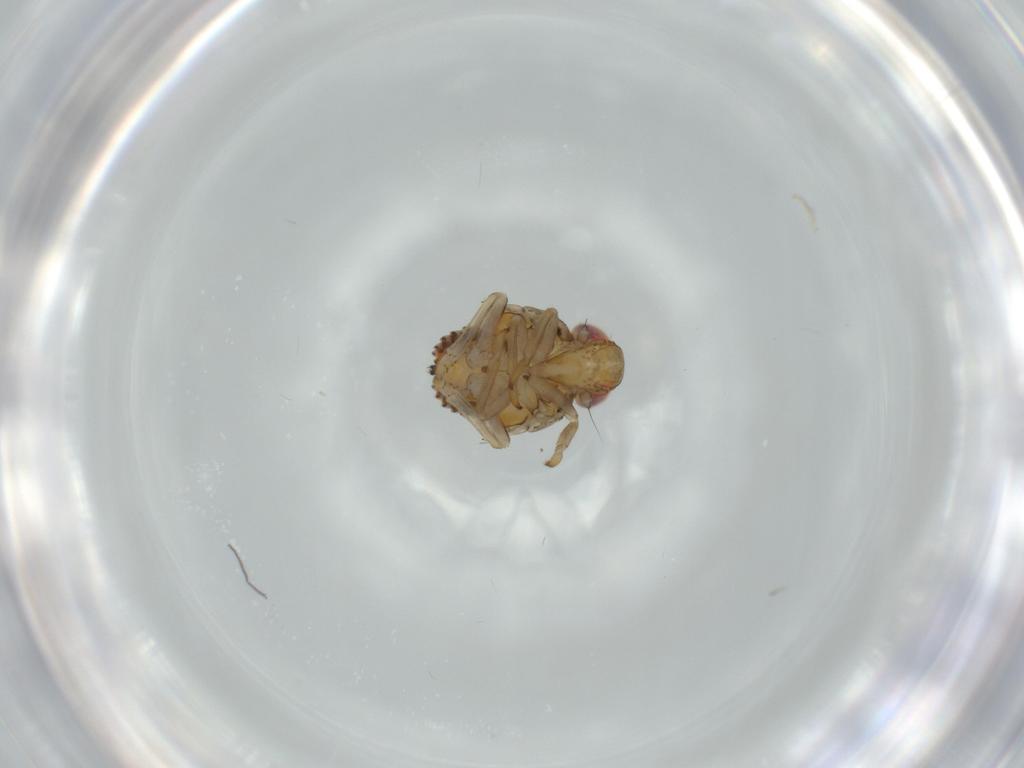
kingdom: Animalia
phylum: Arthropoda
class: Insecta
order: Hemiptera
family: Issidae
